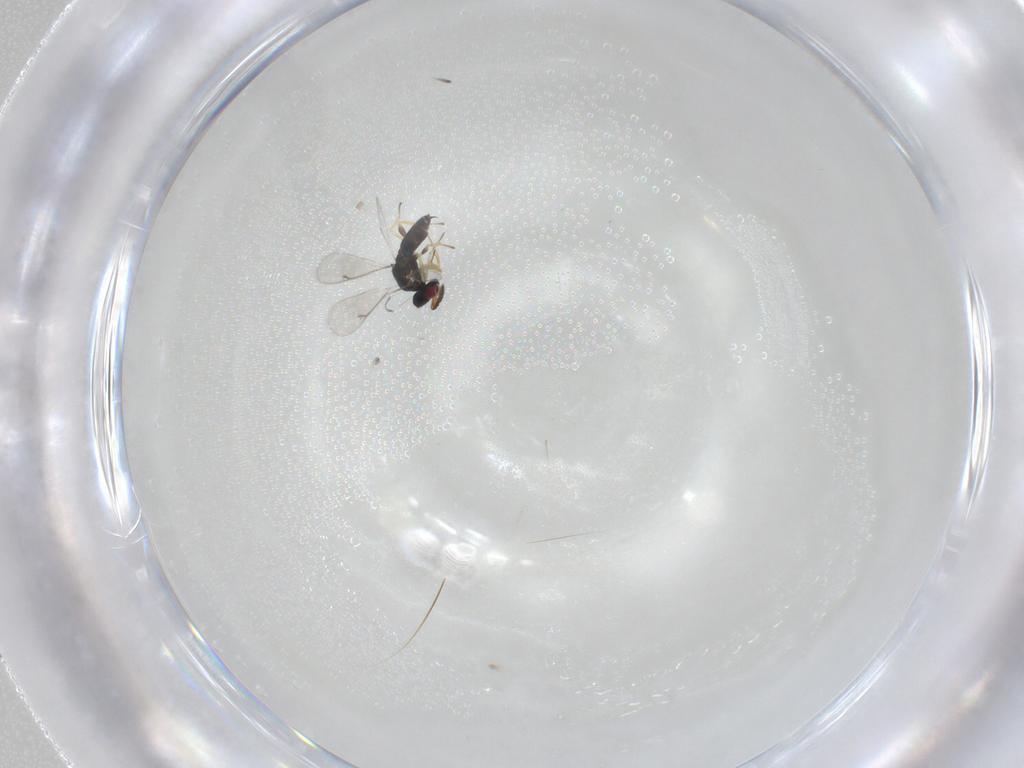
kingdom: Animalia
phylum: Arthropoda
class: Insecta
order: Hymenoptera
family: Eulophidae
